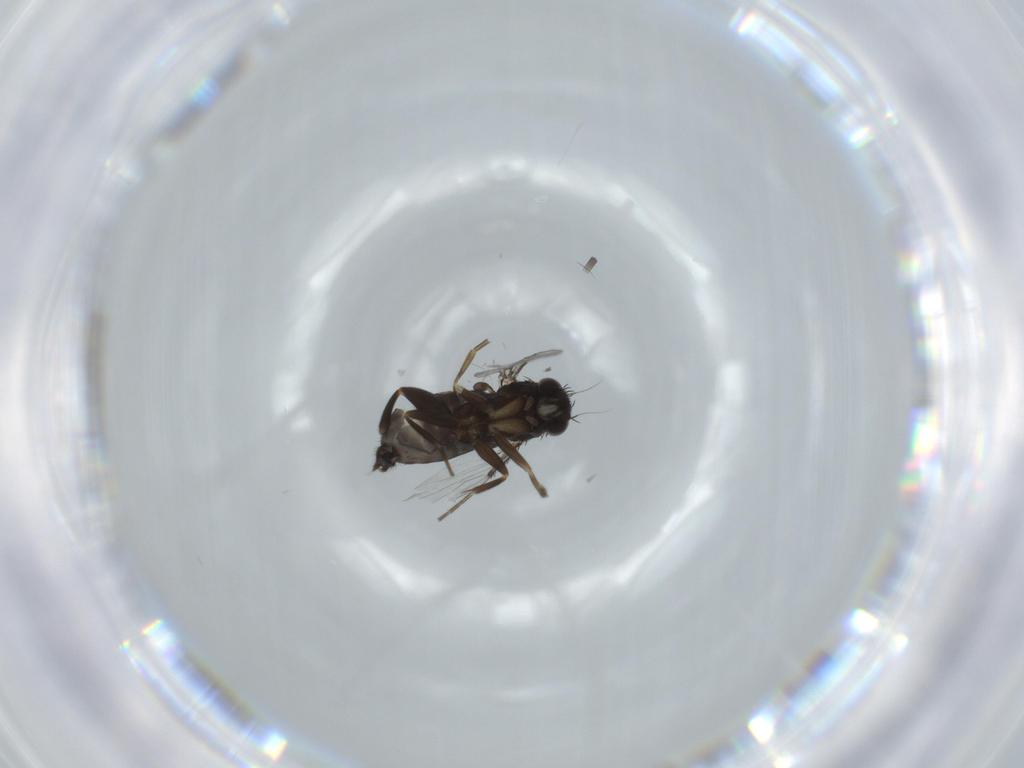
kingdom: Animalia
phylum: Arthropoda
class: Insecta
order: Diptera
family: Phoridae
